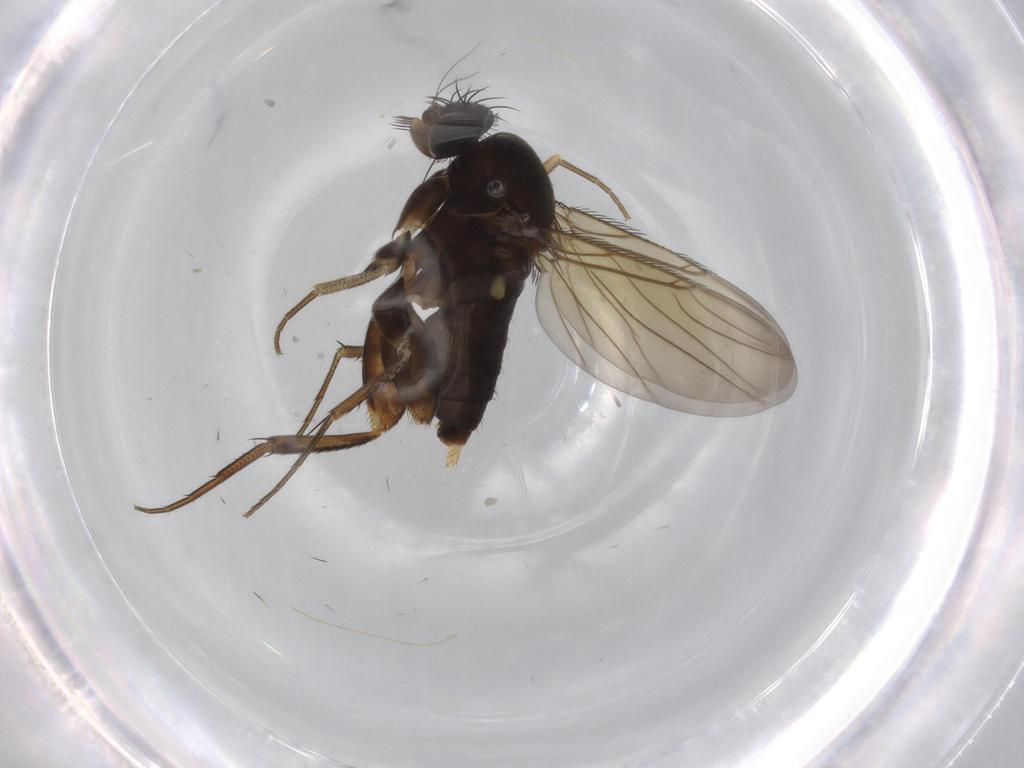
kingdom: Animalia
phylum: Arthropoda
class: Insecta
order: Diptera
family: Phoridae
